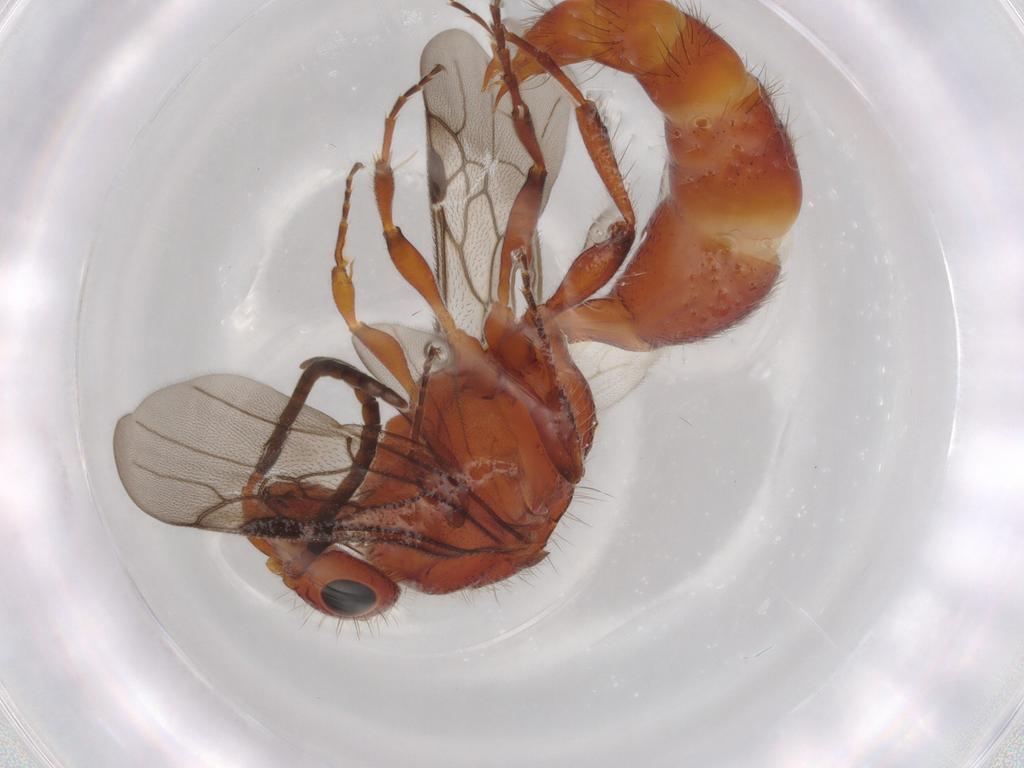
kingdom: Animalia
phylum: Arthropoda
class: Insecta
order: Hymenoptera
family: Mutillidae
